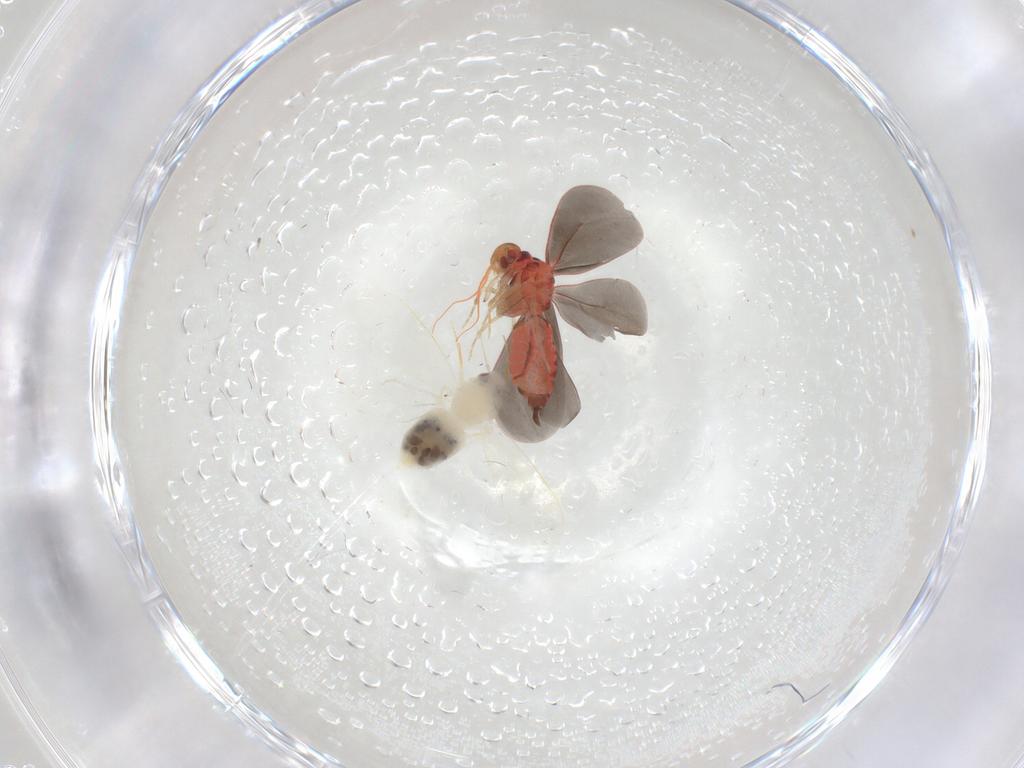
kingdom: Animalia
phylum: Arthropoda
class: Insecta
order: Hemiptera
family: Aleyrodidae
